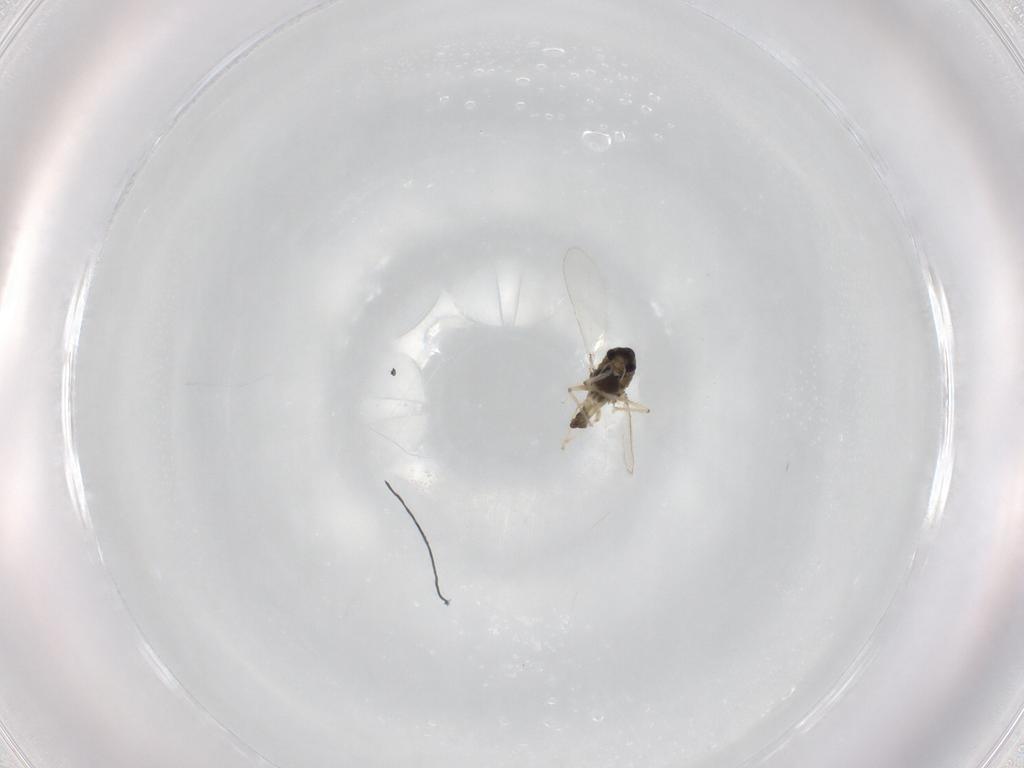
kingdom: Animalia
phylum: Arthropoda
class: Insecta
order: Diptera
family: Chironomidae
